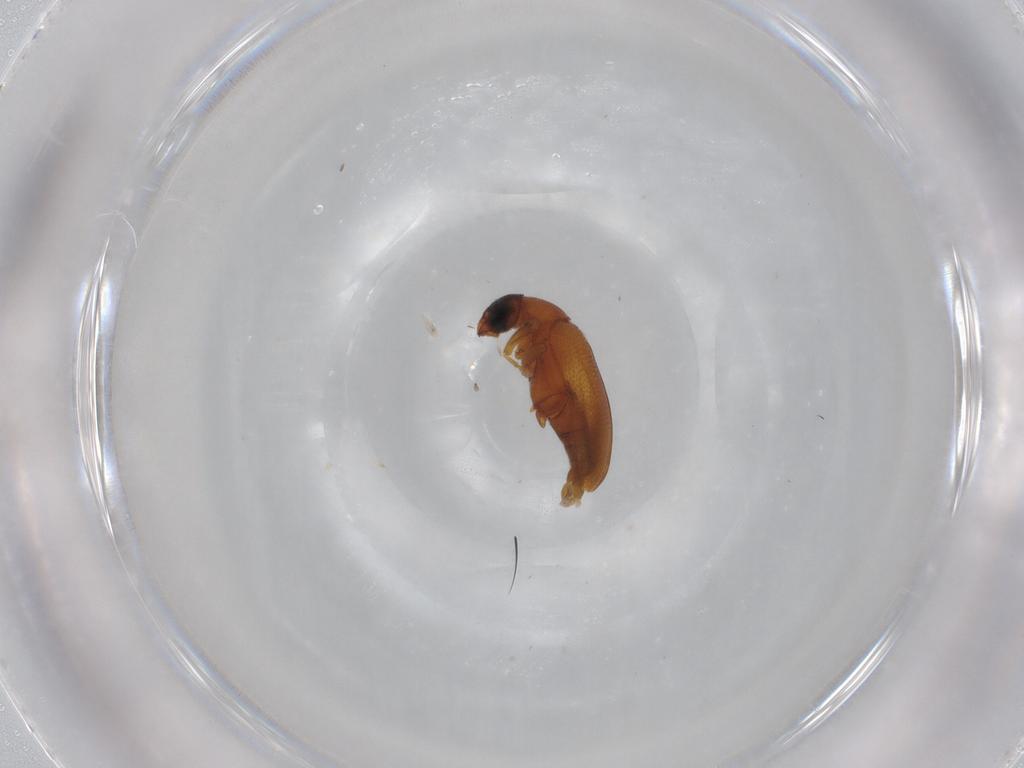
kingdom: Animalia
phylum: Arthropoda
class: Insecta
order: Coleoptera
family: Aderidae
